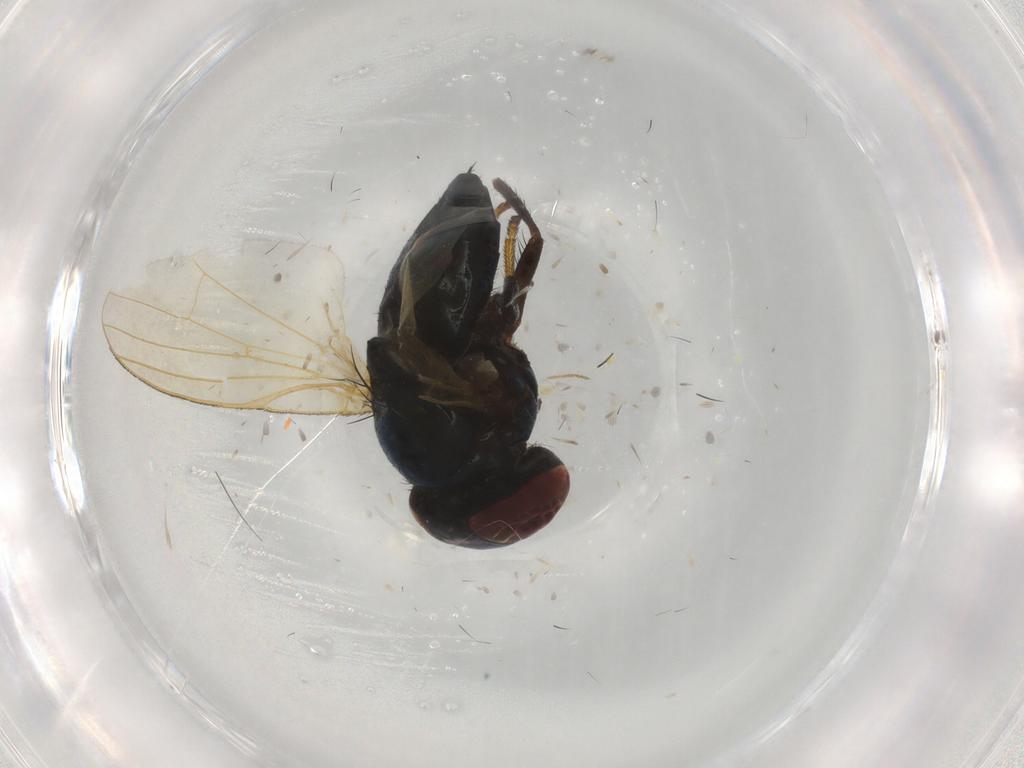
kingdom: Animalia
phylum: Arthropoda
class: Insecta
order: Diptera
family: Lonchaeidae
